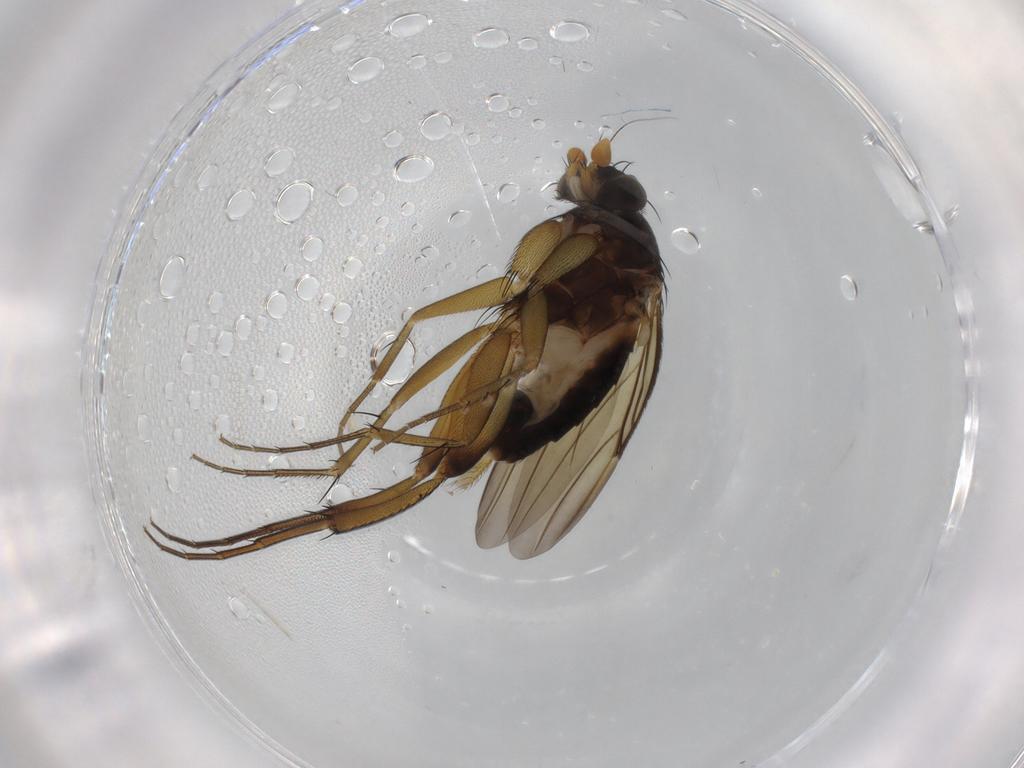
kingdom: Animalia
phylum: Arthropoda
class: Insecta
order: Diptera
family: Phoridae
